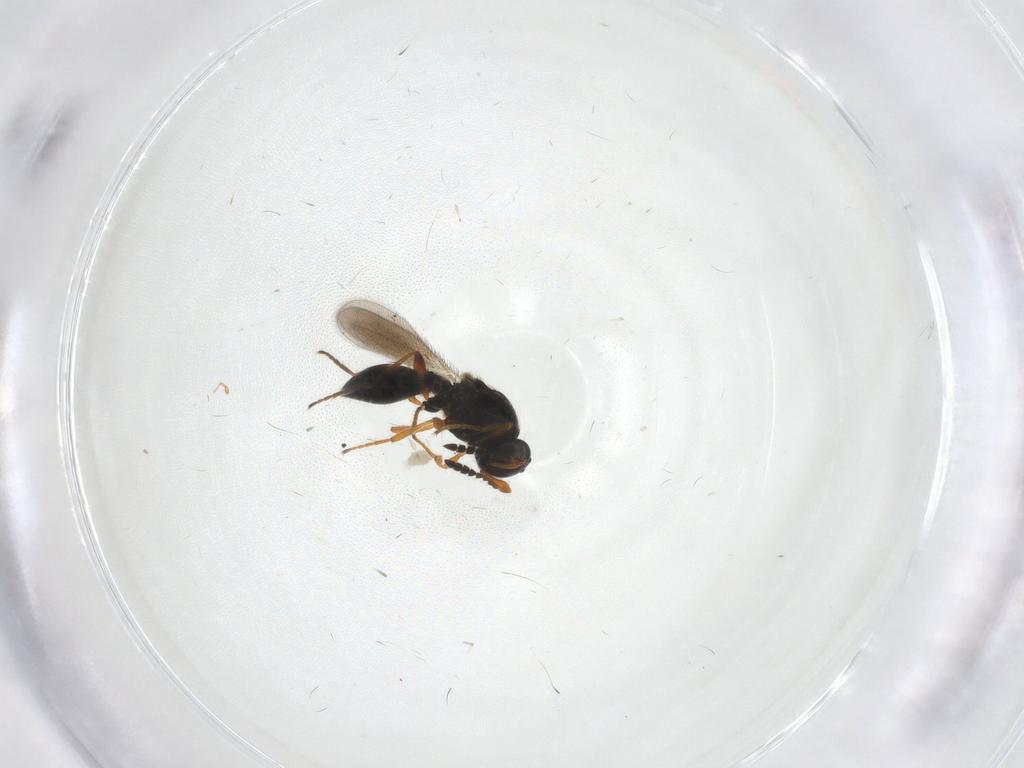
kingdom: Animalia
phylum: Arthropoda
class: Insecta
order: Hymenoptera
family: Platygastridae
